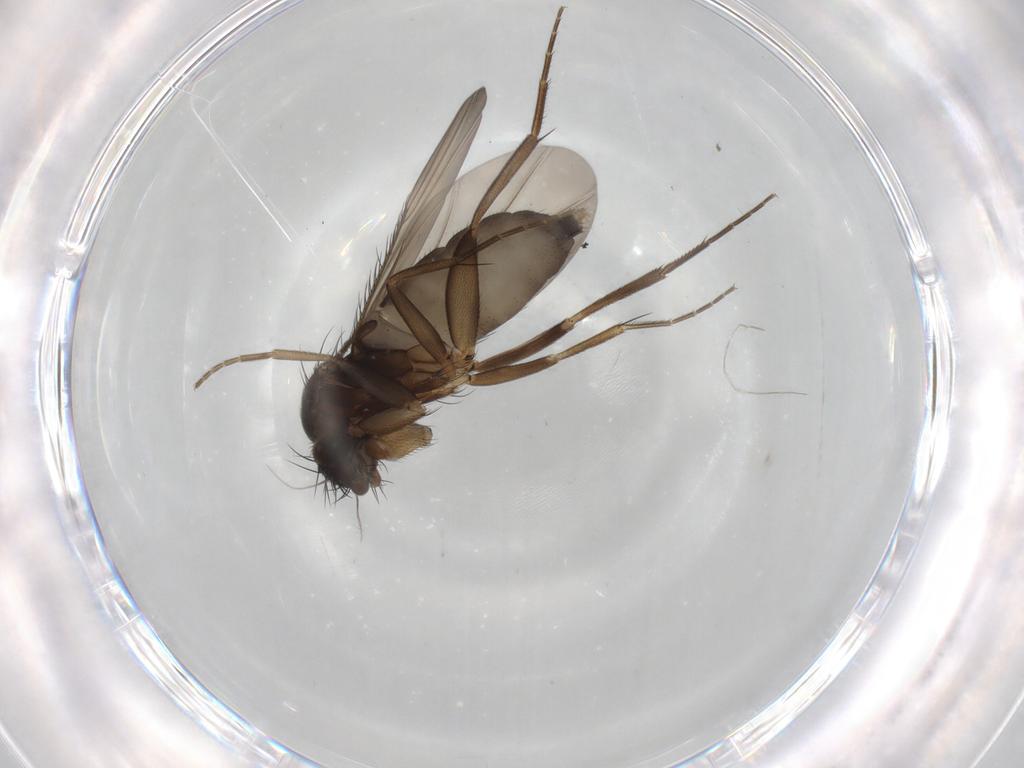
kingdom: Animalia
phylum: Arthropoda
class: Insecta
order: Diptera
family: Phoridae
